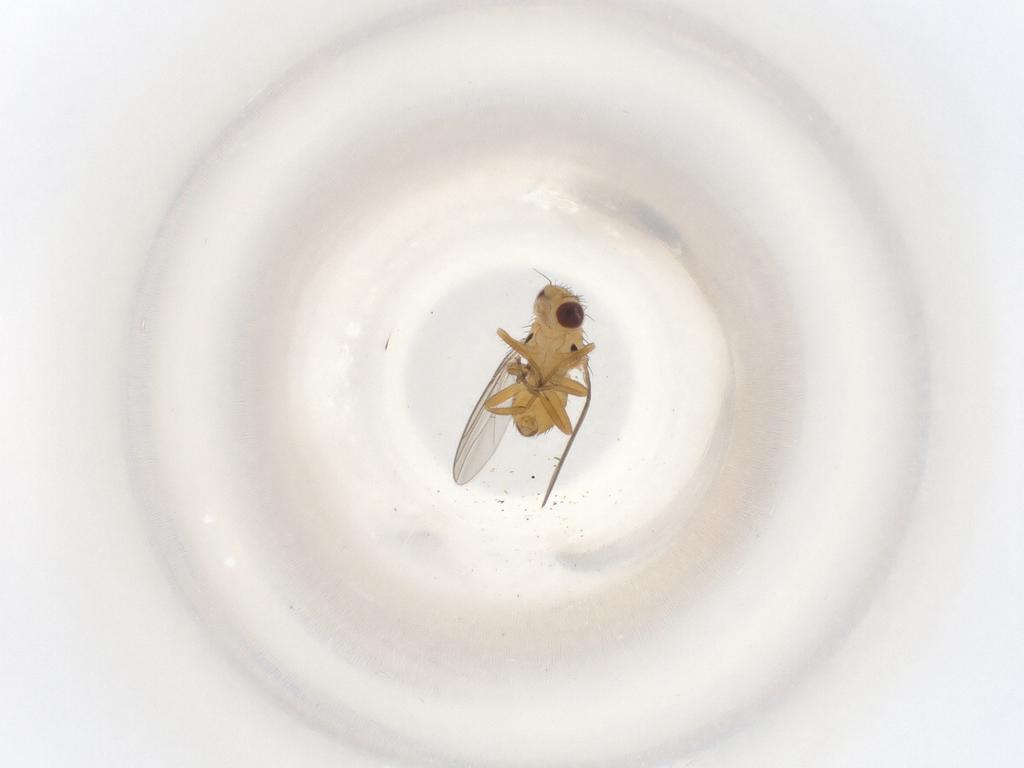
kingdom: Animalia
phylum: Arthropoda
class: Insecta
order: Diptera
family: Chloropidae
